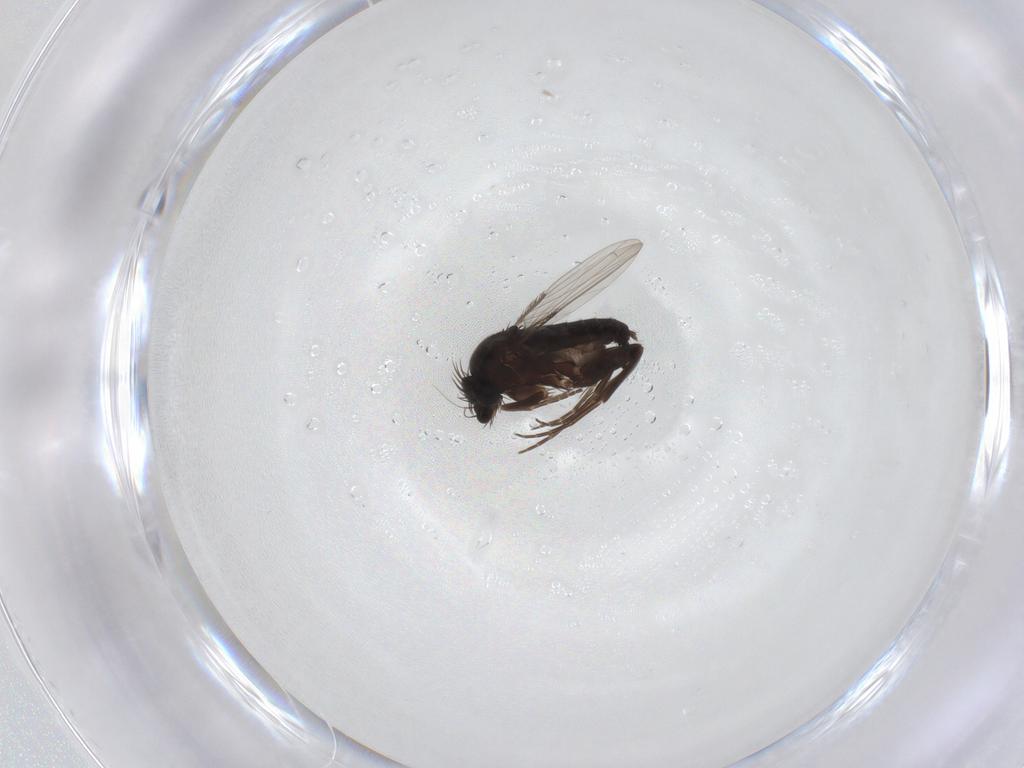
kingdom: Animalia
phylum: Arthropoda
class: Insecta
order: Diptera
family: Phoridae
